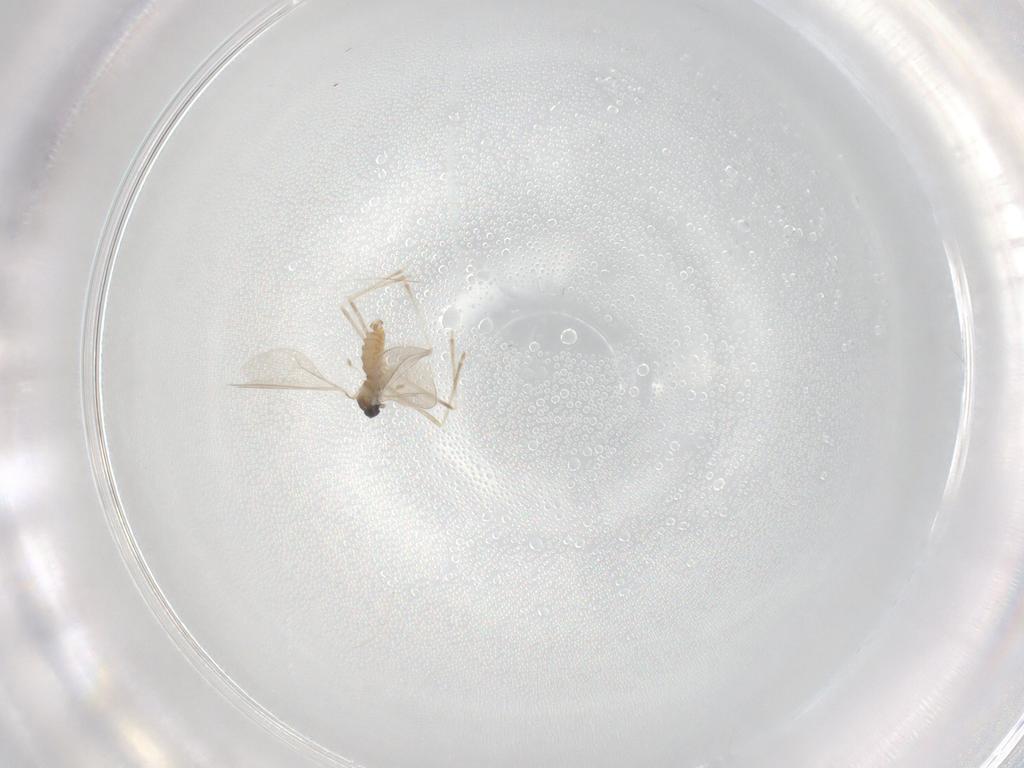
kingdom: Animalia
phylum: Arthropoda
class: Insecta
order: Diptera
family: Cecidomyiidae
